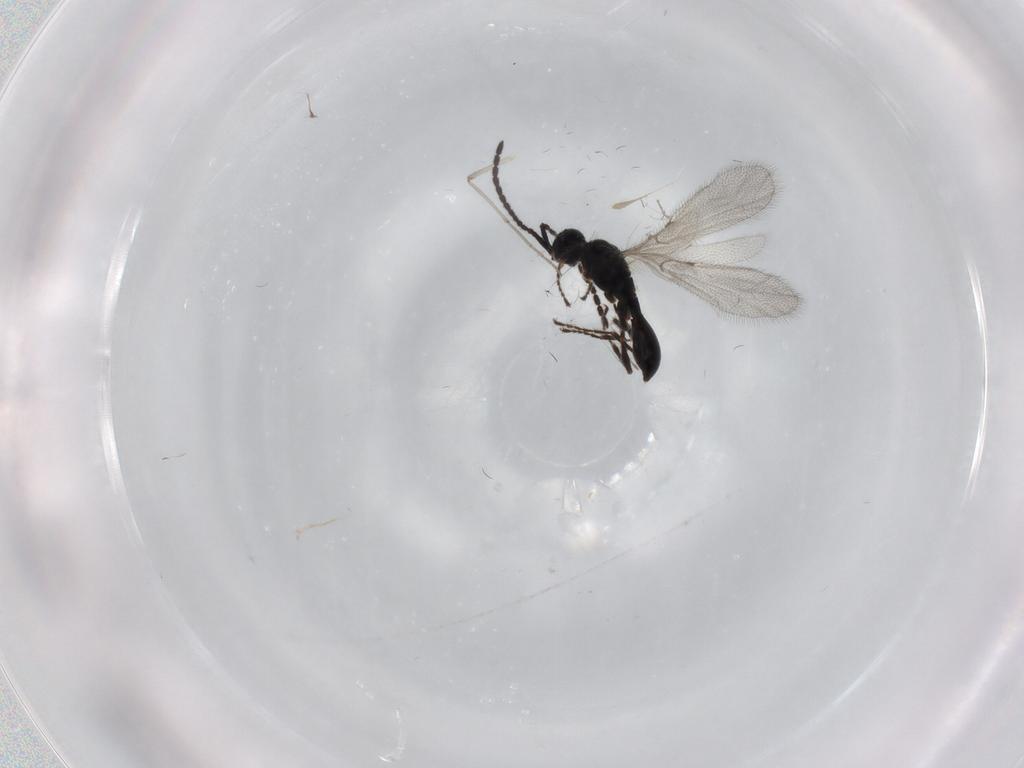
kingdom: Animalia
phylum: Arthropoda
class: Insecta
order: Hymenoptera
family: Diapriidae
